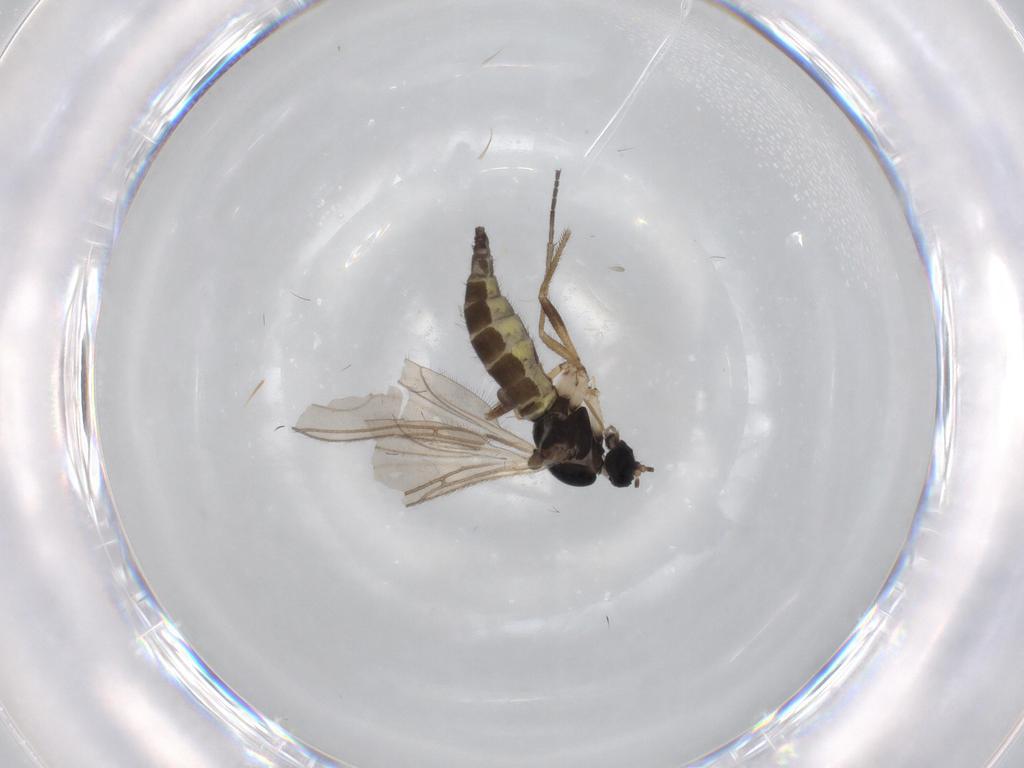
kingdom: Animalia
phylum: Arthropoda
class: Insecta
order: Diptera
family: Sciaridae
